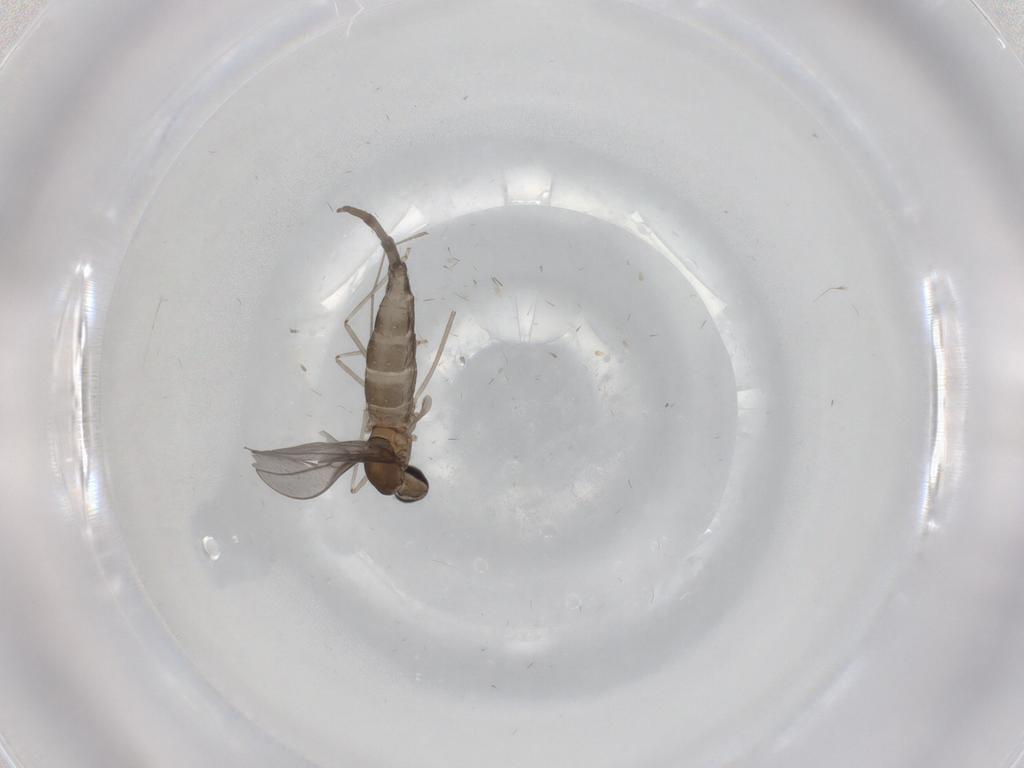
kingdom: Animalia
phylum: Arthropoda
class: Insecta
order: Diptera
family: Cecidomyiidae
